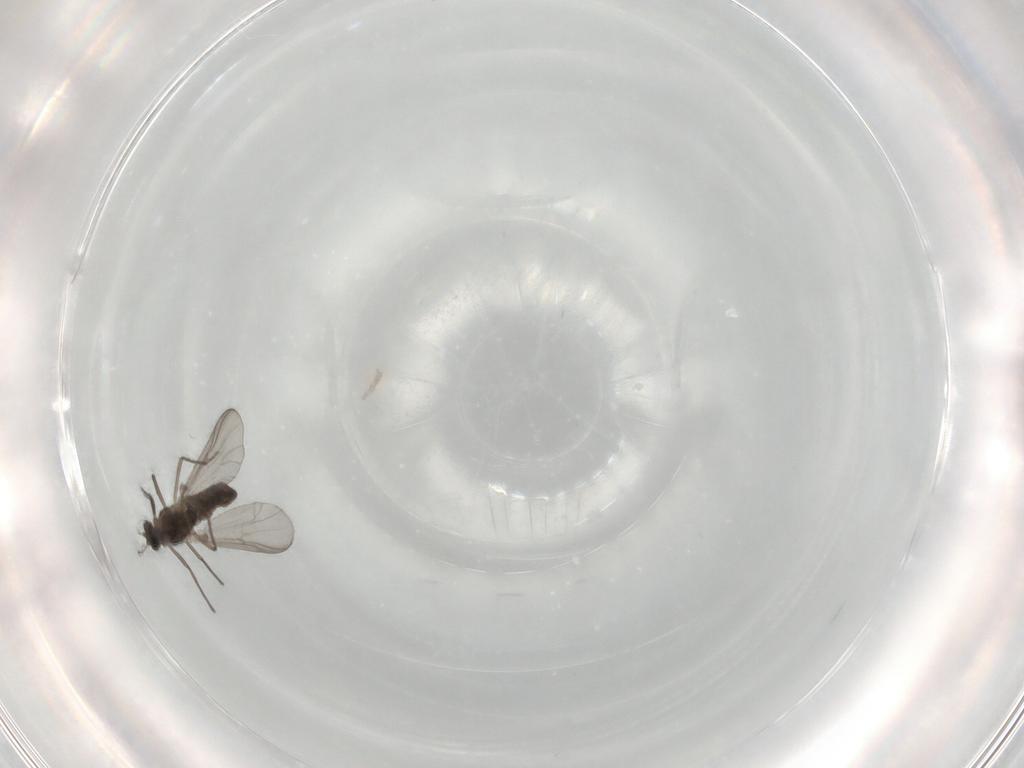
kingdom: Animalia
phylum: Arthropoda
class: Insecta
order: Diptera
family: Chironomidae
